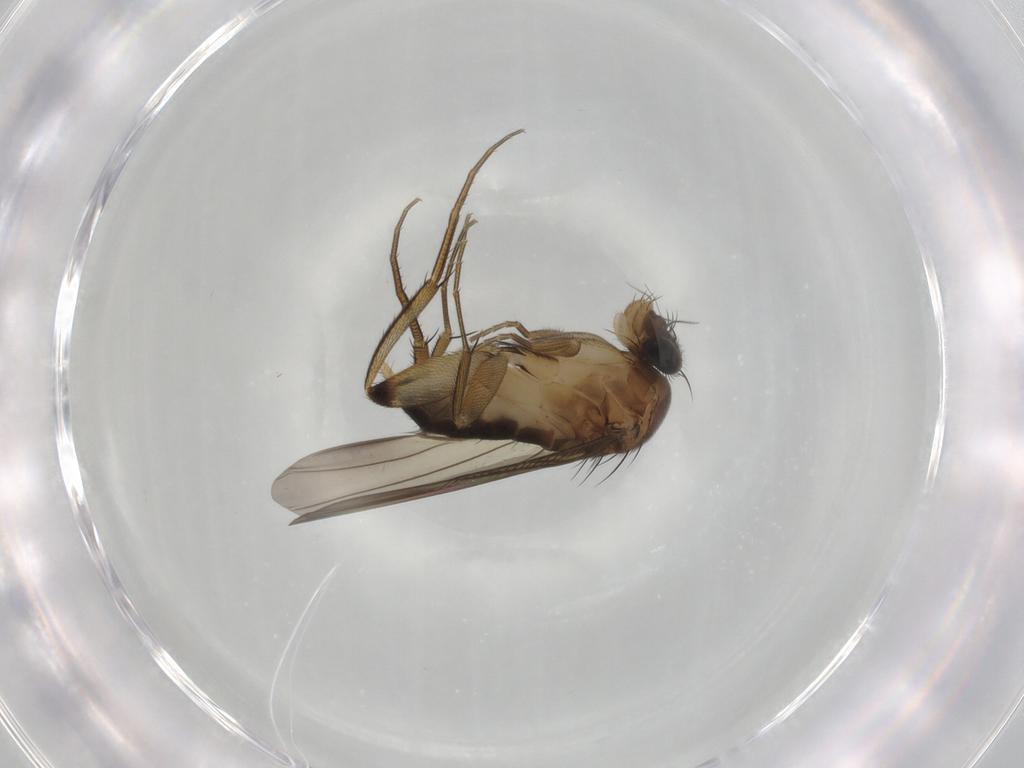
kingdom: Animalia
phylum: Arthropoda
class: Insecta
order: Diptera
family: Phoridae
